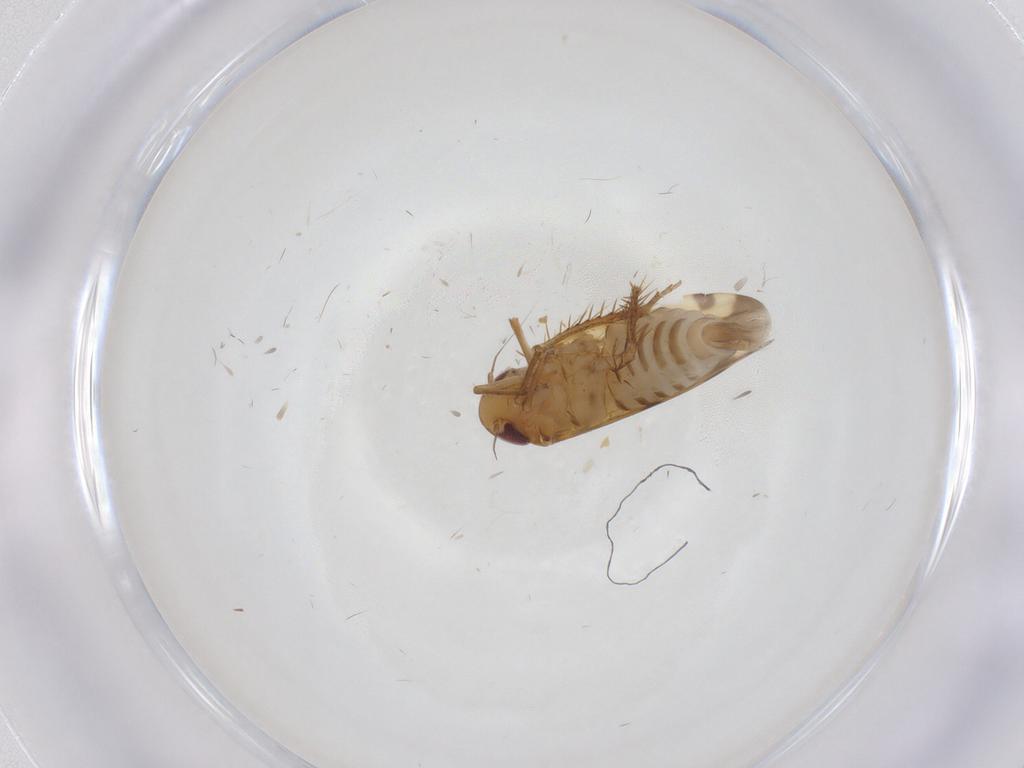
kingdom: Animalia
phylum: Arthropoda
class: Insecta
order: Hemiptera
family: Cicadellidae
